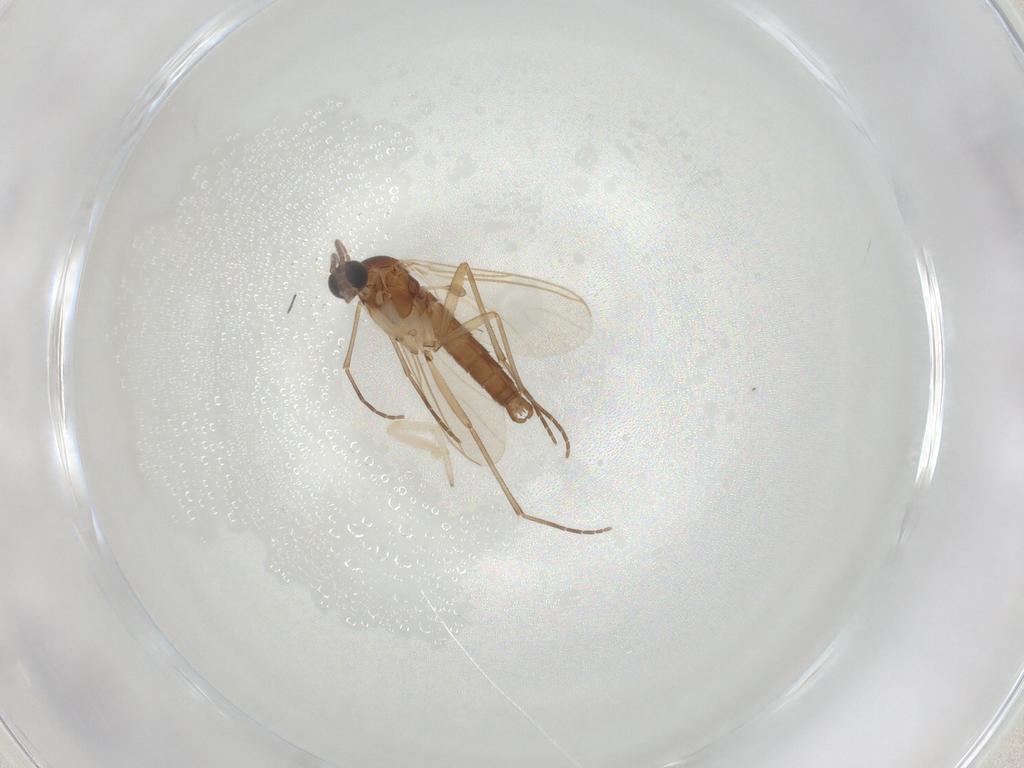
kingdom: Animalia
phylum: Arthropoda
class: Insecta
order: Diptera
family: Sciaridae
